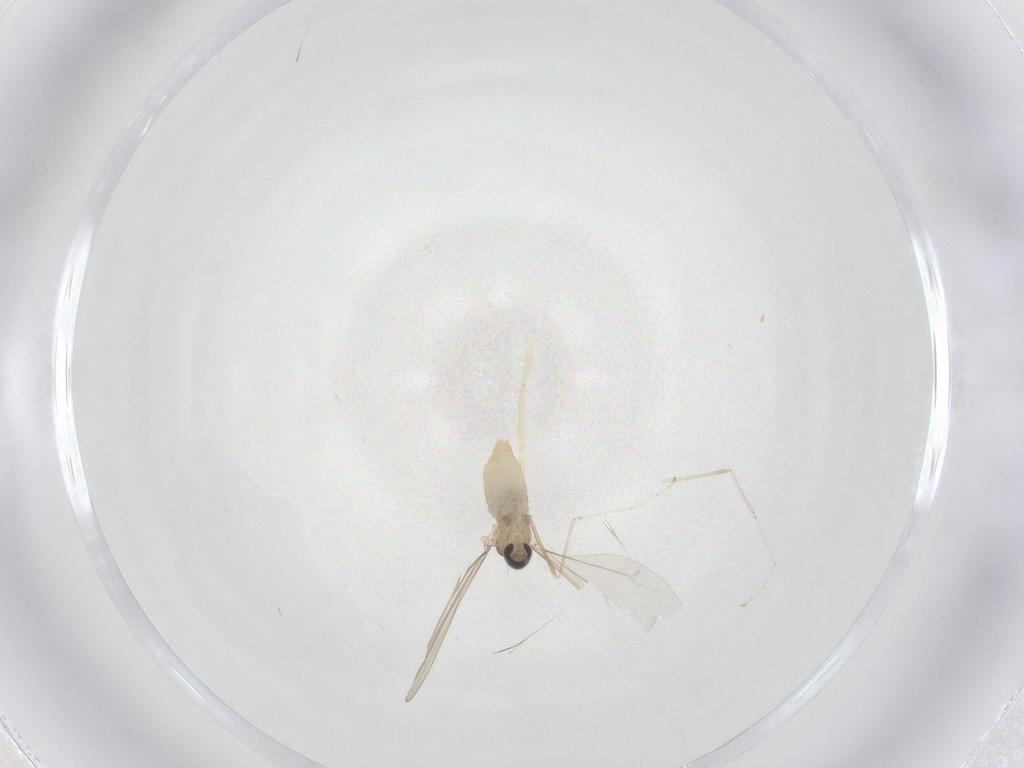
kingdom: Animalia
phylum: Arthropoda
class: Insecta
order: Diptera
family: Cecidomyiidae
